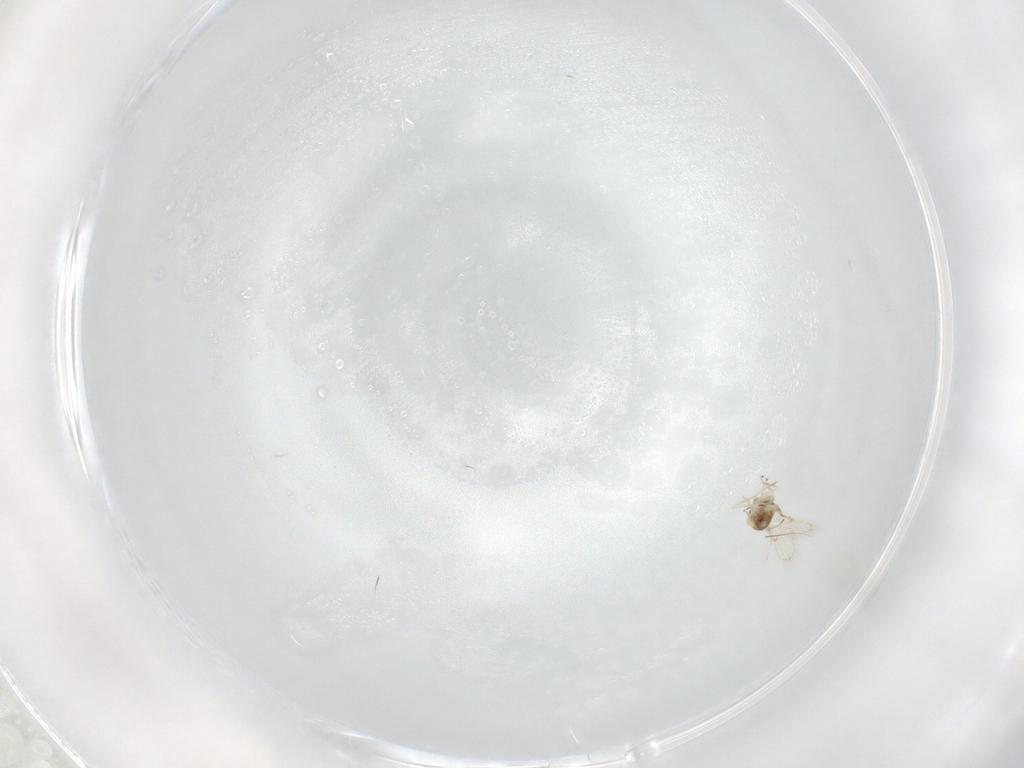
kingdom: Animalia
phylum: Arthropoda
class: Insecta
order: Hymenoptera
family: Trichogrammatidae
